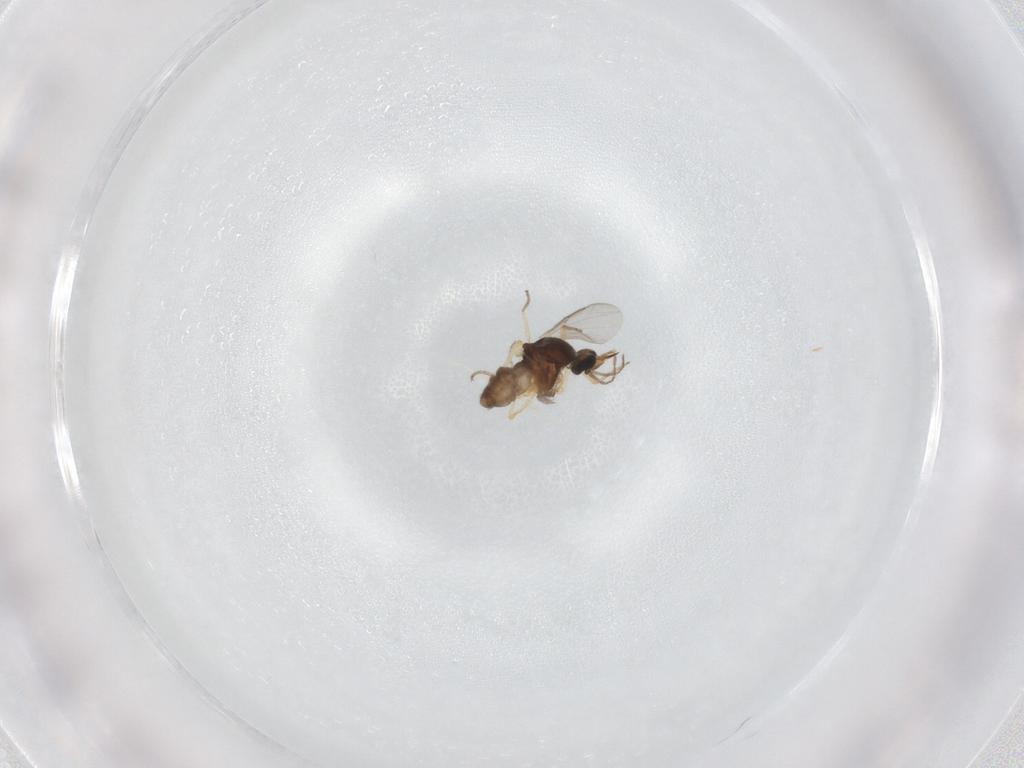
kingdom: Animalia
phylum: Arthropoda
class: Insecta
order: Diptera
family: Ceratopogonidae
